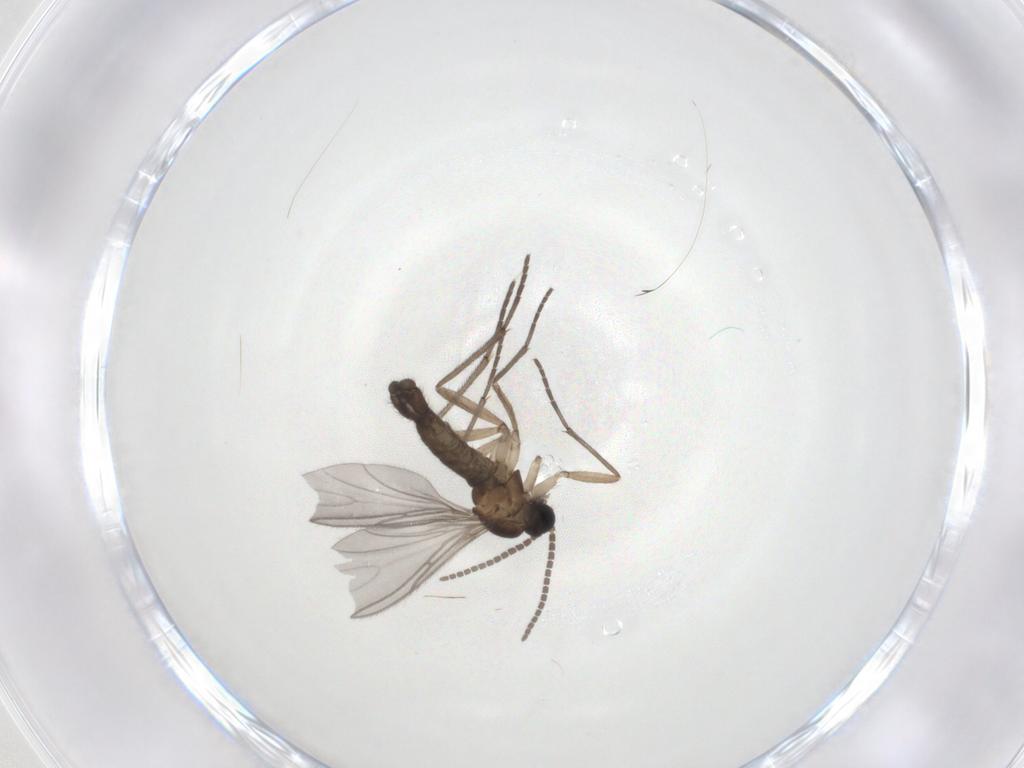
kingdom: Animalia
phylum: Arthropoda
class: Insecta
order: Diptera
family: Sciaridae
